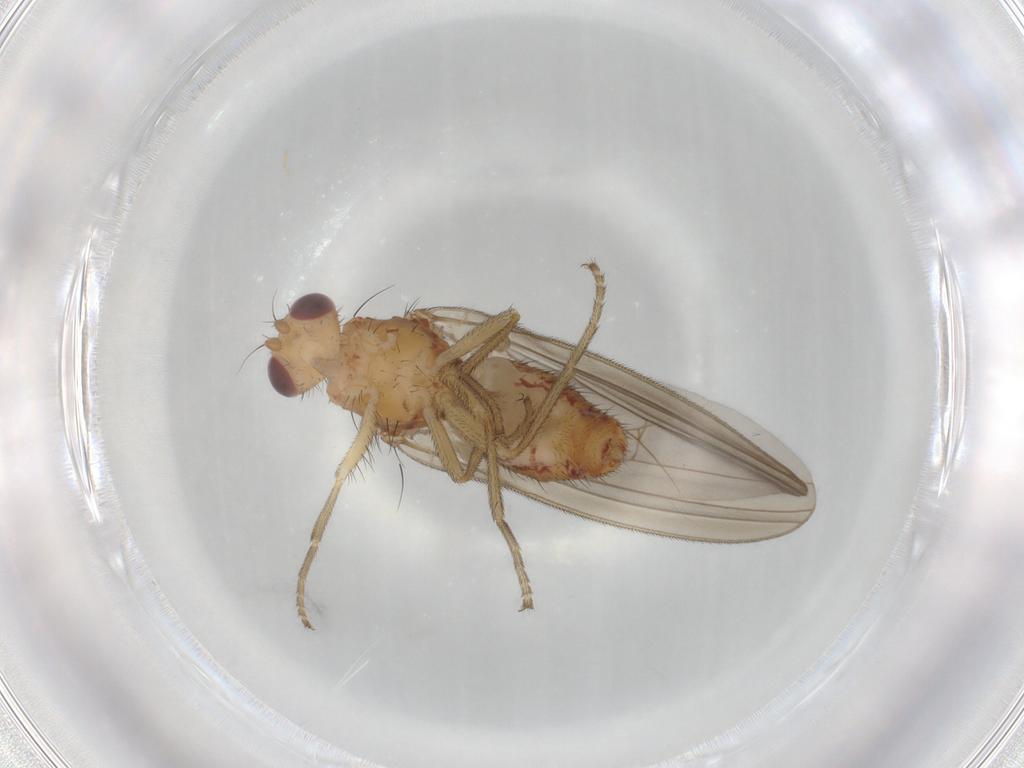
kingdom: Animalia
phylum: Arthropoda
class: Insecta
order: Diptera
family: Natalimyzidae
